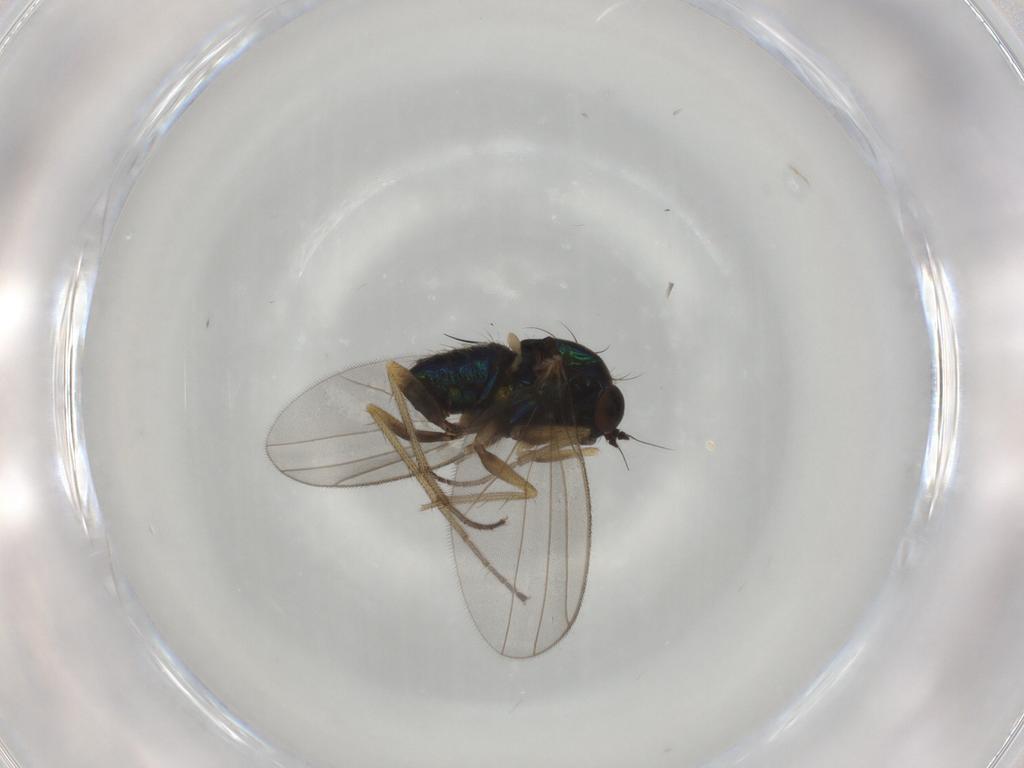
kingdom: Animalia
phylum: Arthropoda
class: Insecta
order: Diptera
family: Dolichopodidae
